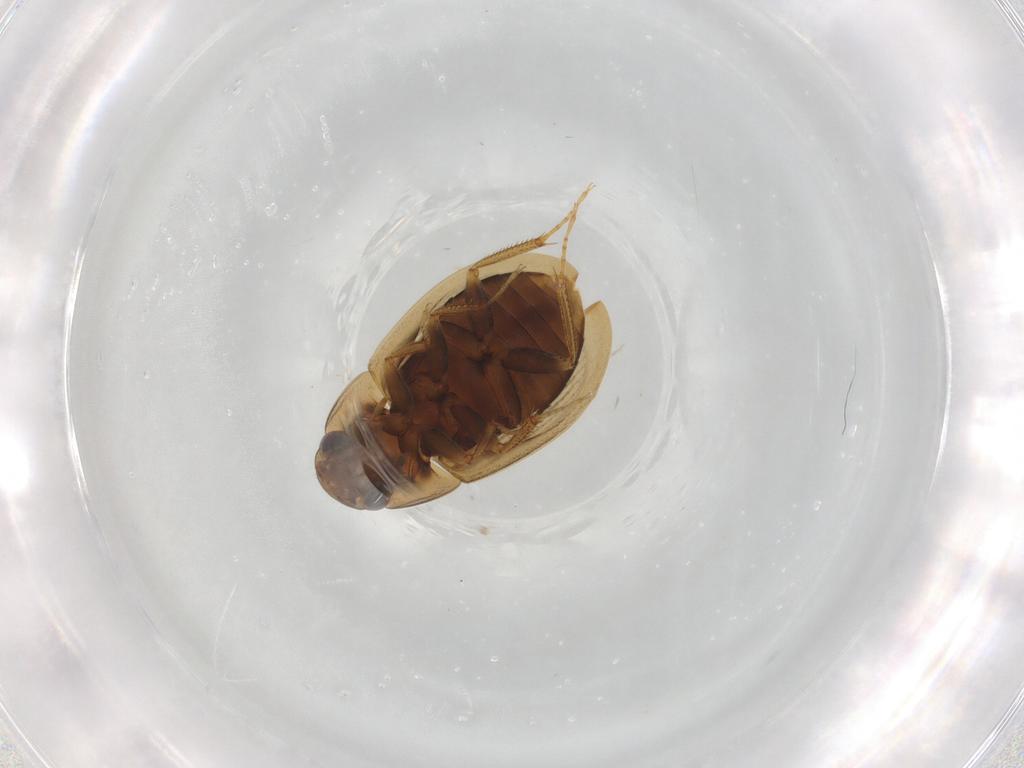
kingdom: Animalia
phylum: Arthropoda
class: Insecta
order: Coleoptera
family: Hydrophilidae
